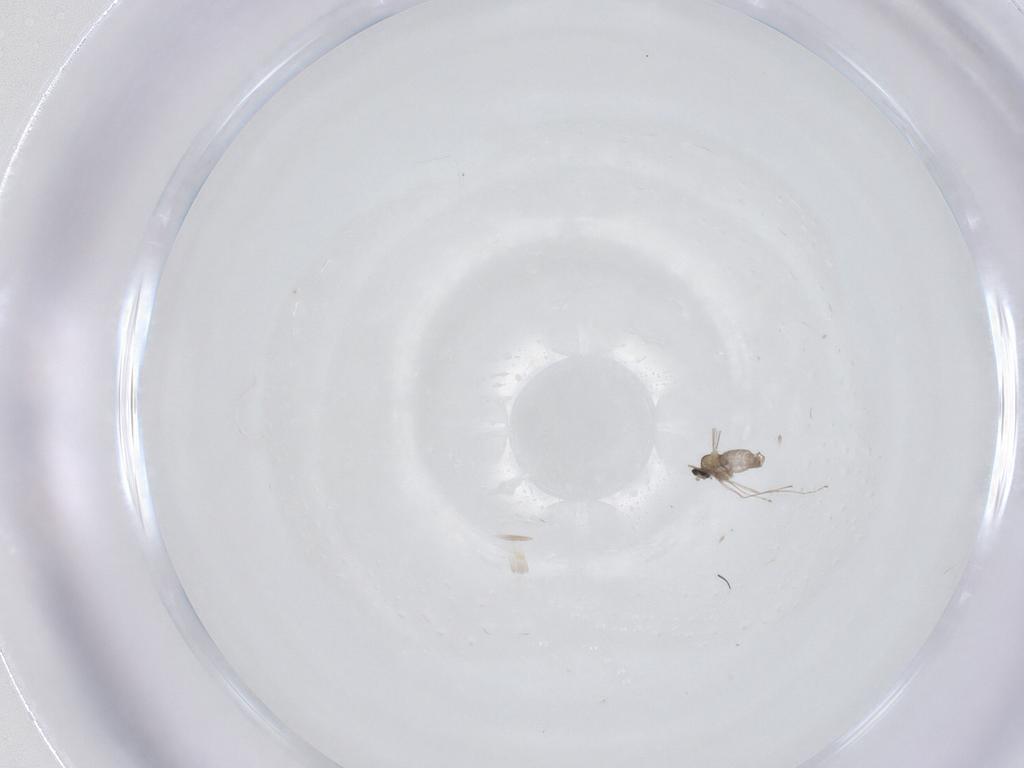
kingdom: Animalia
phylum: Arthropoda
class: Insecta
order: Diptera
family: Cecidomyiidae
